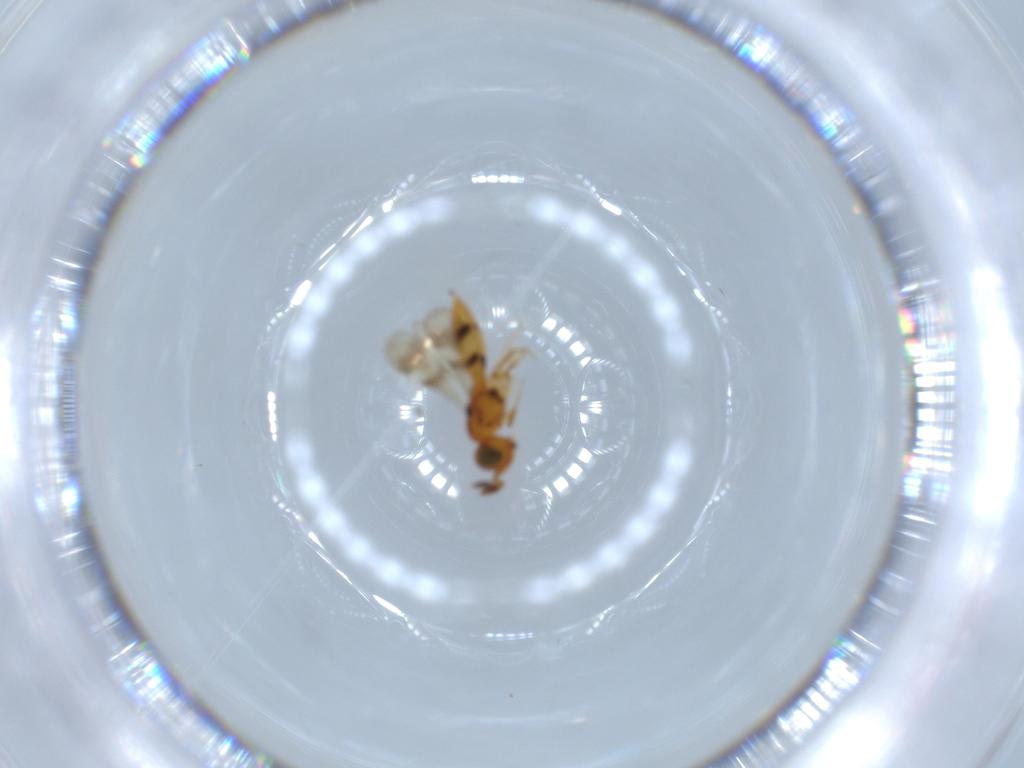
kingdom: Animalia
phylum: Arthropoda
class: Insecta
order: Hymenoptera
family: Scelionidae
